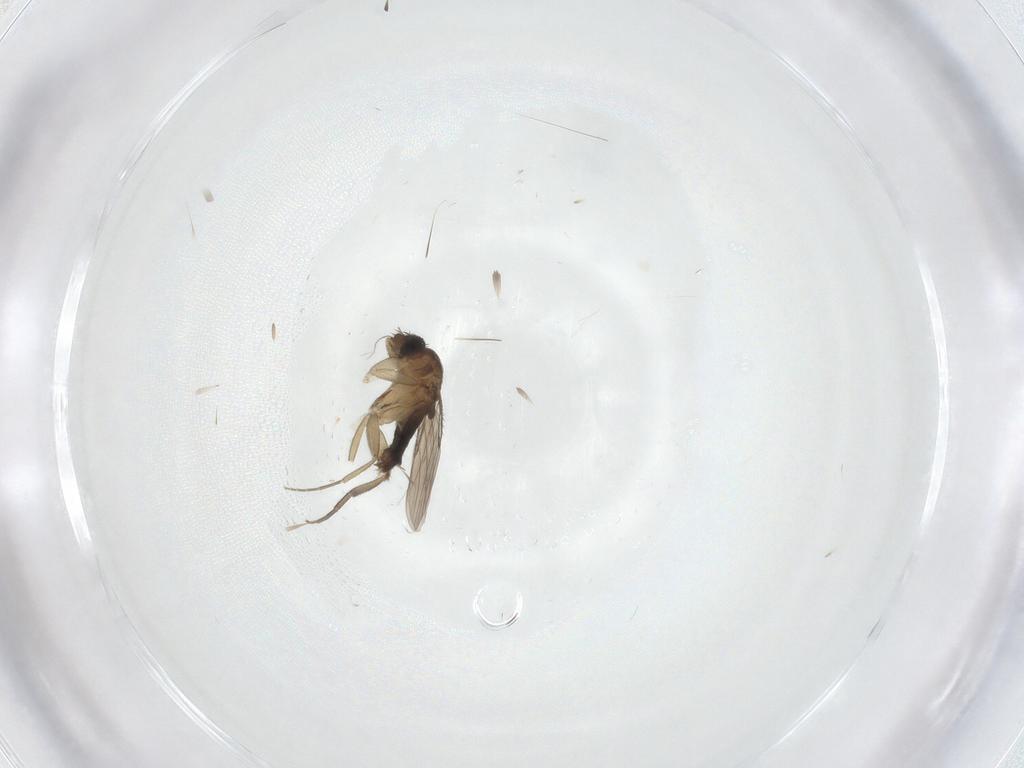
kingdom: Animalia
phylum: Arthropoda
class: Insecta
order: Diptera
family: Phoridae
